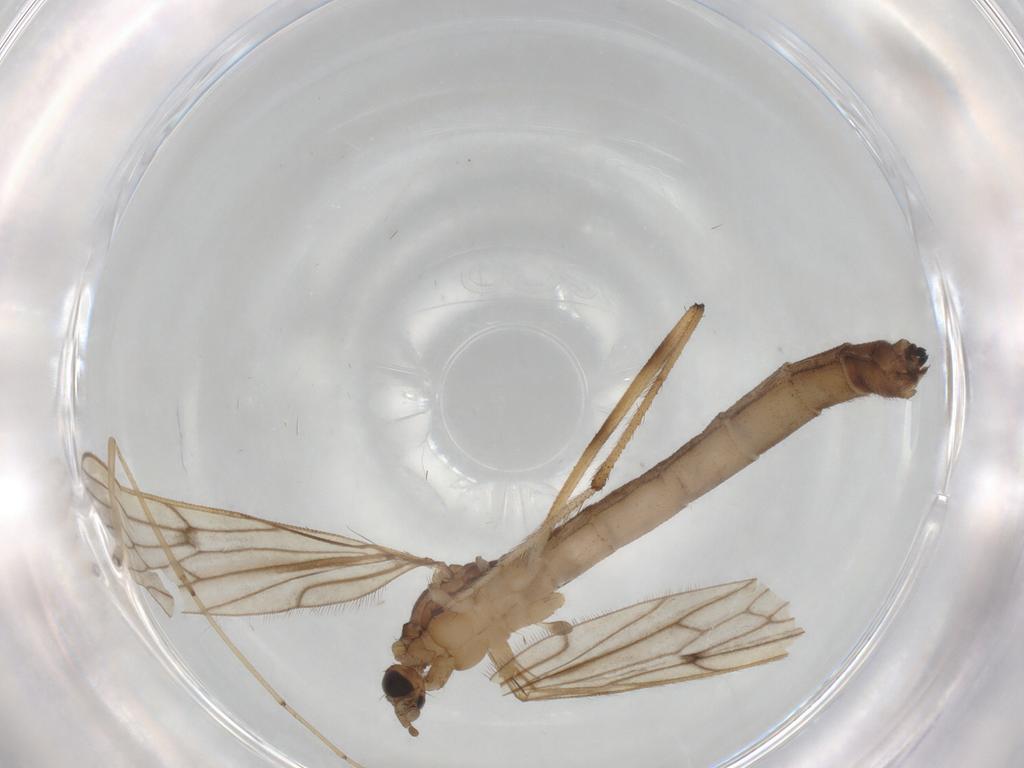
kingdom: Animalia
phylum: Arthropoda
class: Insecta
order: Diptera
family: Limoniidae
